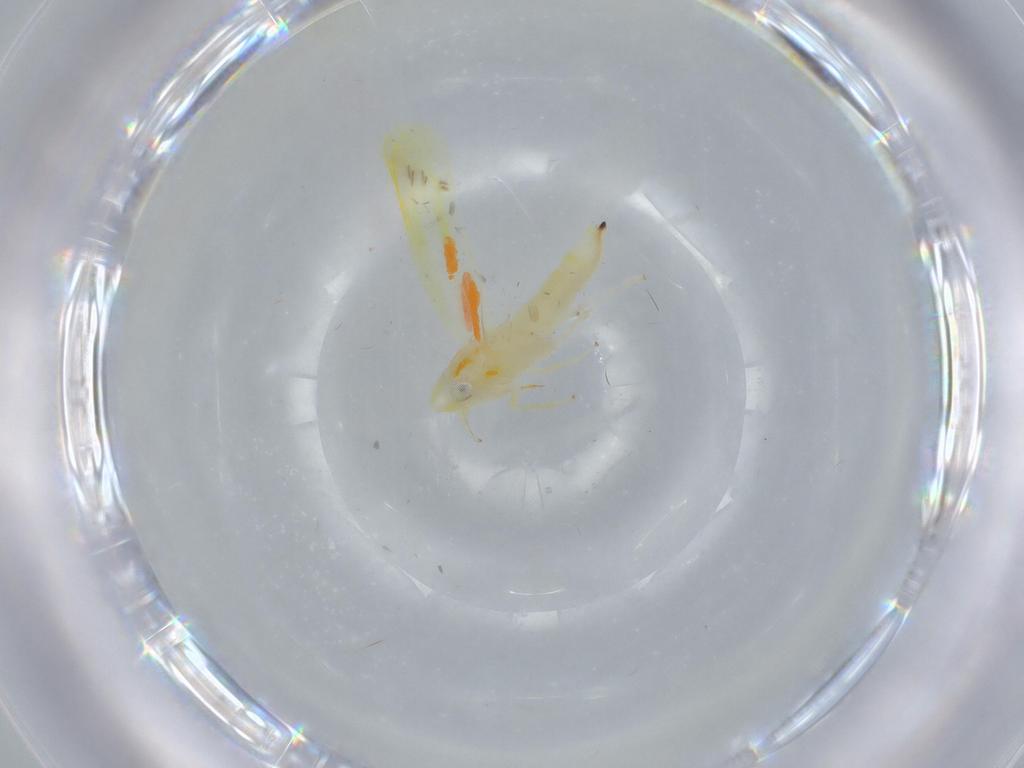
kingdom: Animalia
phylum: Arthropoda
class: Insecta
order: Hemiptera
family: Cicadellidae
